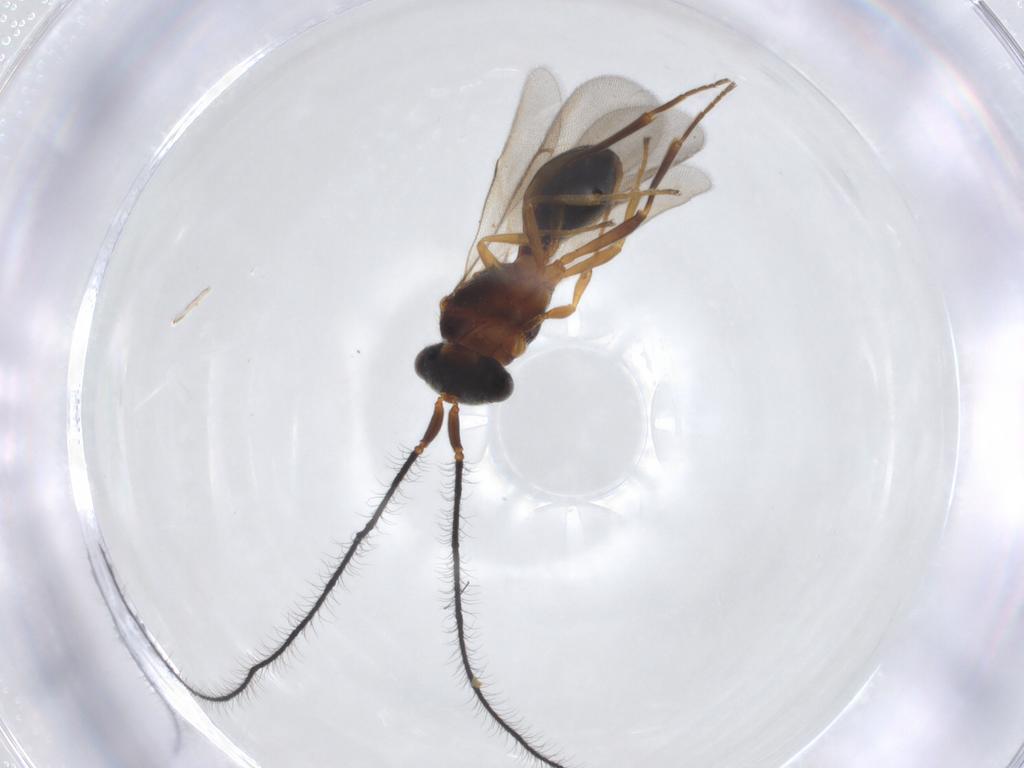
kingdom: Animalia
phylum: Arthropoda
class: Insecta
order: Hymenoptera
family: Scelionidae
